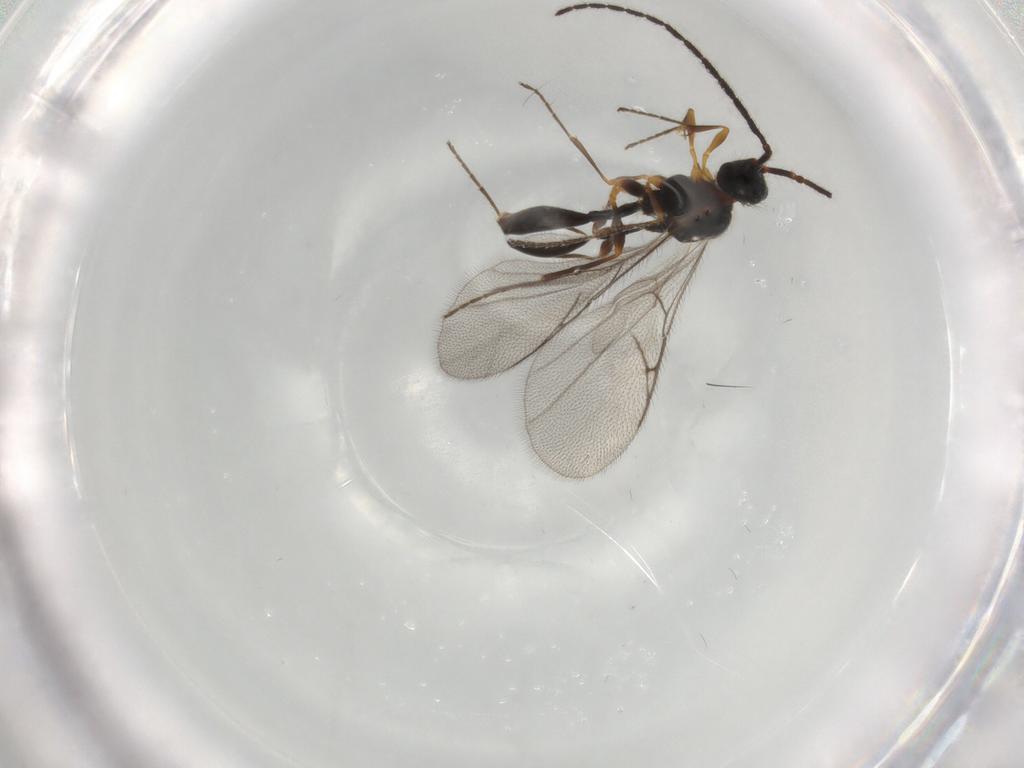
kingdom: Animalia
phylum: Arthropoda
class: Insecta
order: Hymenoptera
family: Diapriidae
